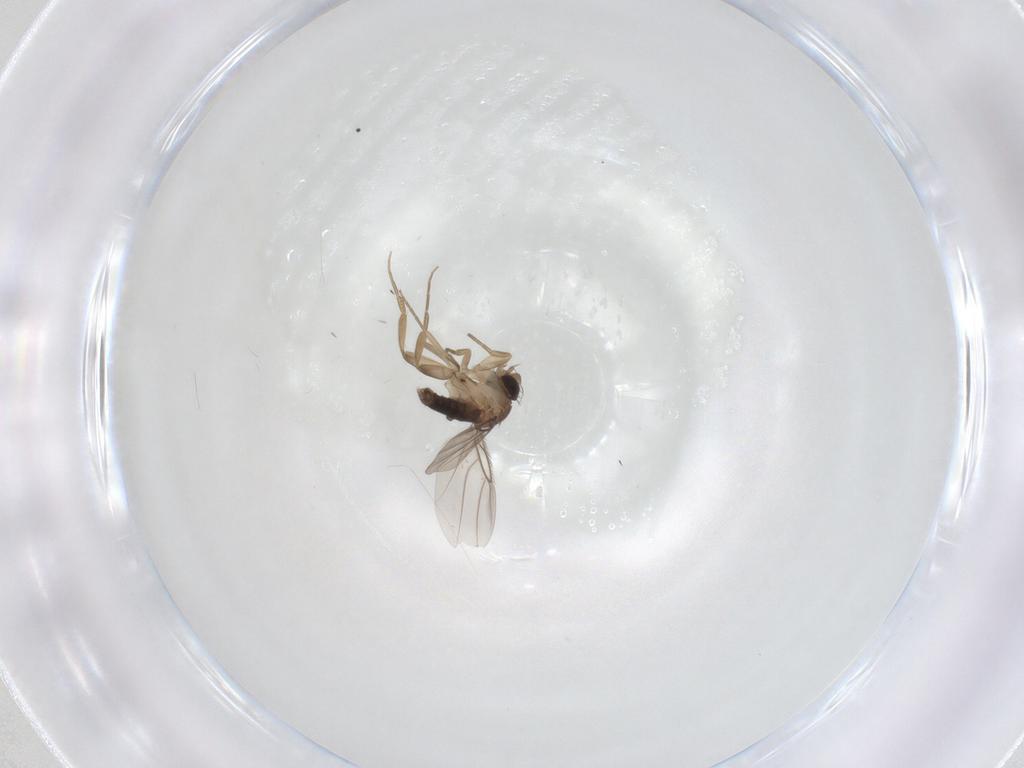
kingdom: Animalia
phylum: Arthropoda
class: Insecta
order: Diptera
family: Phoridae
